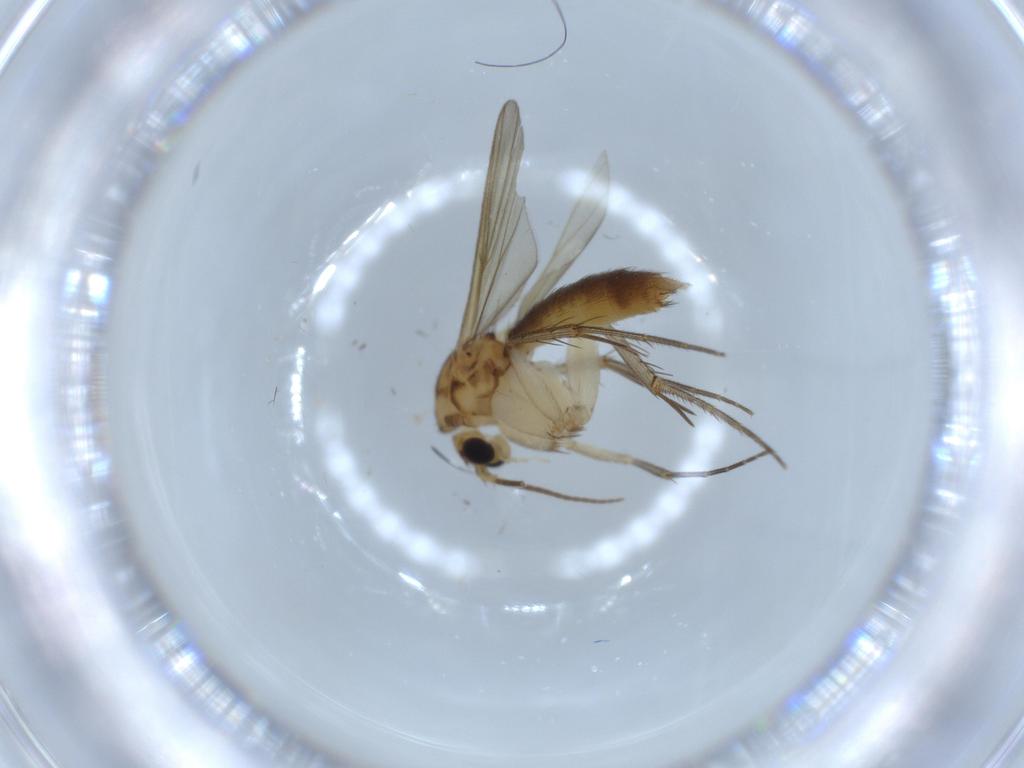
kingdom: Animalia
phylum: Arthropoda
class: Insecta
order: Diptera
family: Mycetophilidae
